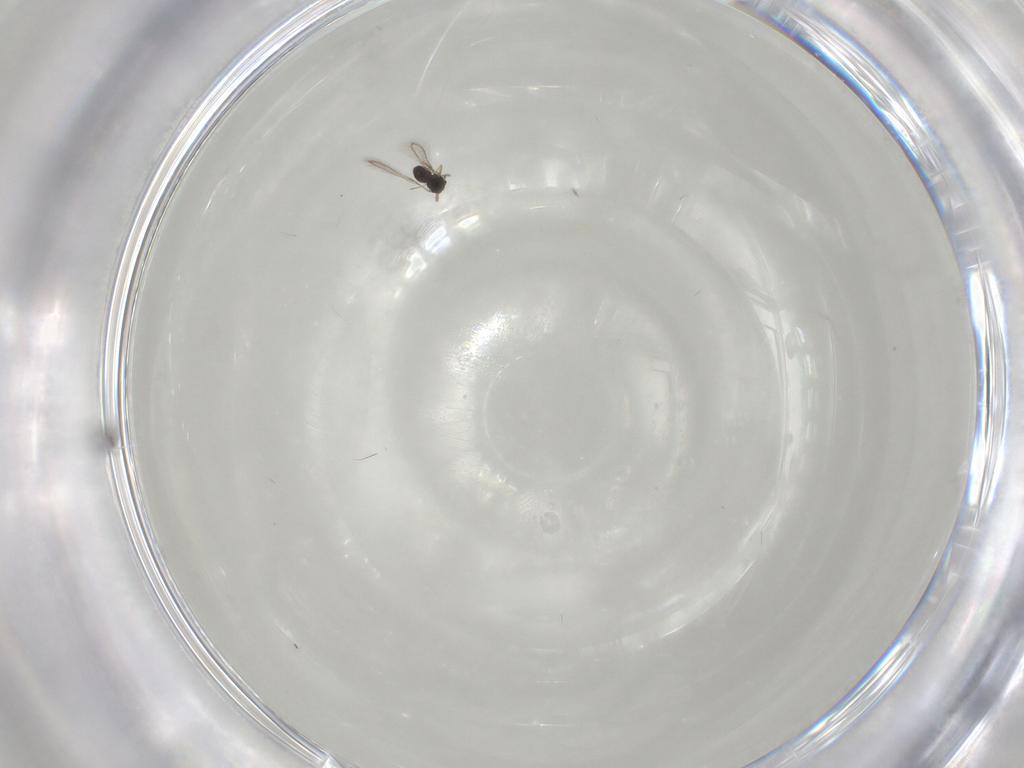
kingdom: Animalia
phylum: Arthropoda
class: Insecta
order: Hymenoptera
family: Mymaridae
